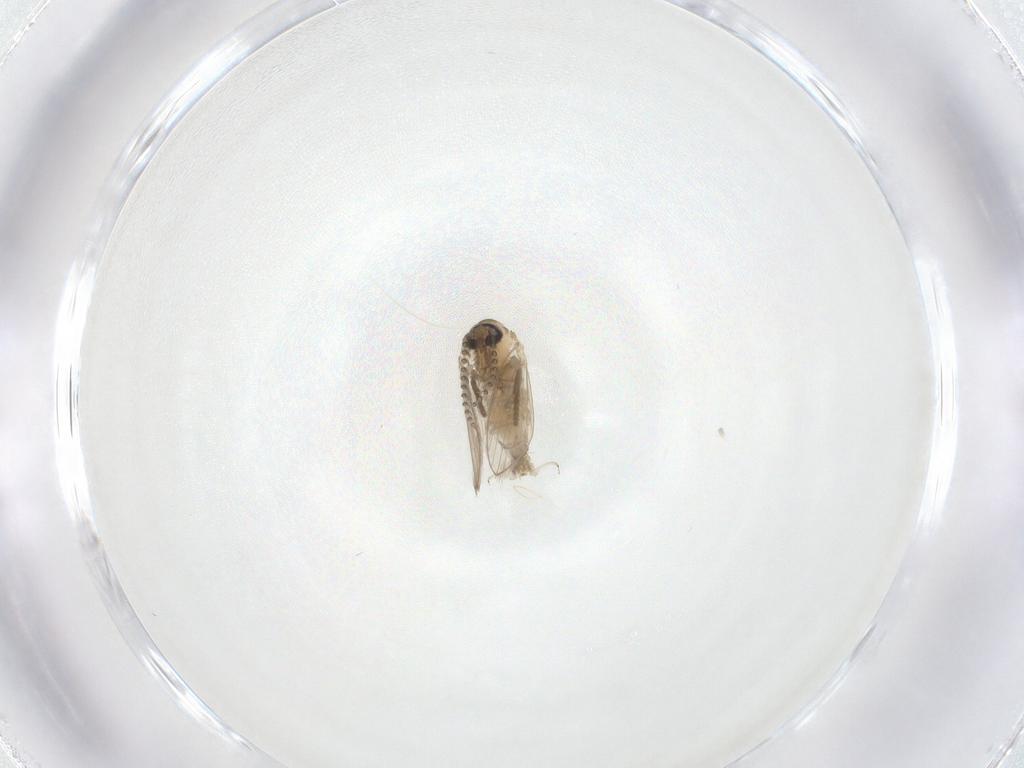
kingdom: Animalia
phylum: Arthropoda
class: Insecta
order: Diptera
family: Psychodidae
